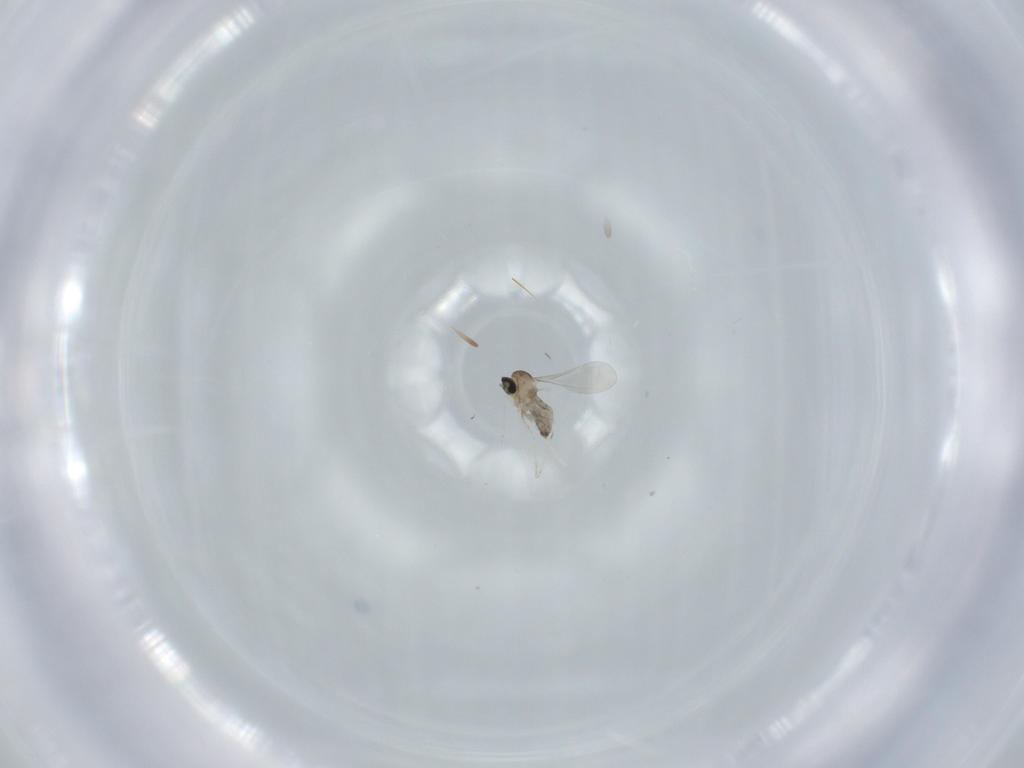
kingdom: Animalia
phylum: Arthropoda
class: Insecta
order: Diptera
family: Cecidomyiidae
